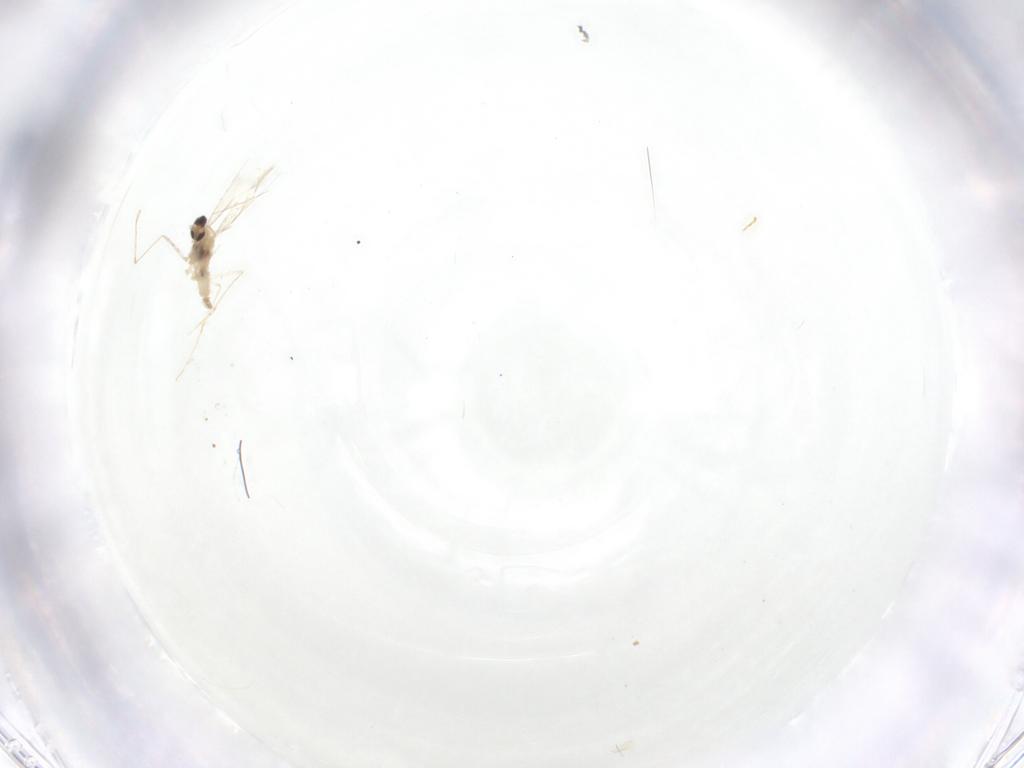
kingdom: Animalia
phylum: Arthropoda
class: Insecta
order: Diptera
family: Cecidomyiidae
